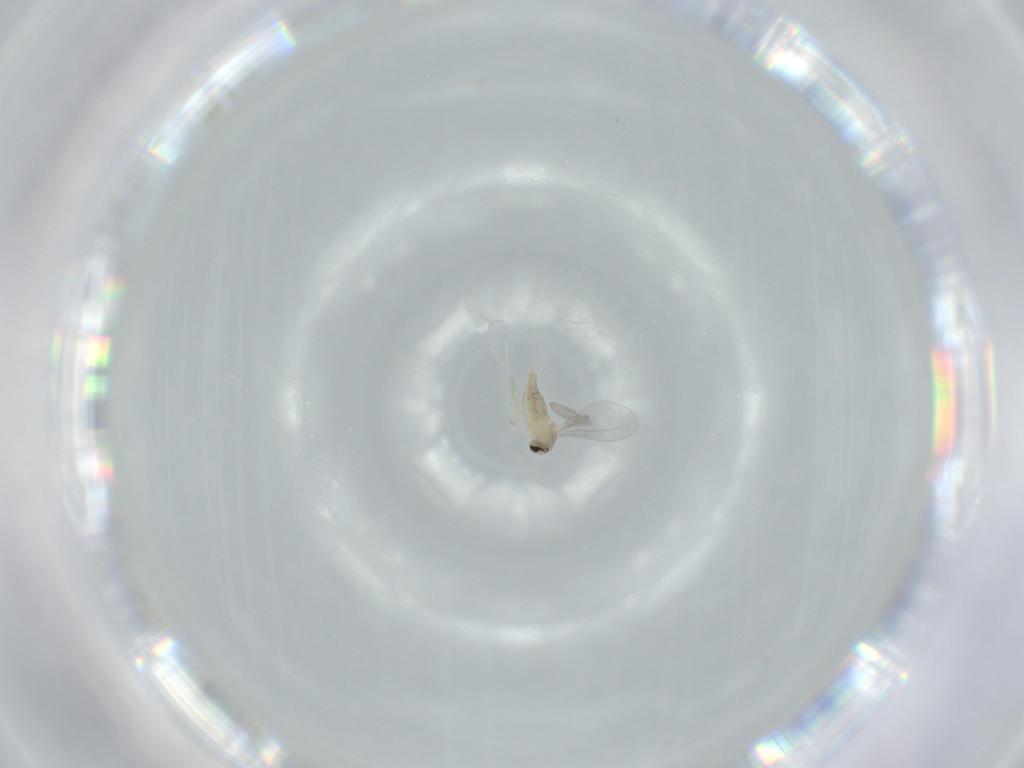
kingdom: Animalia
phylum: Arthropoda
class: Insecta
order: Diptera
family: Cecidomyiidae
